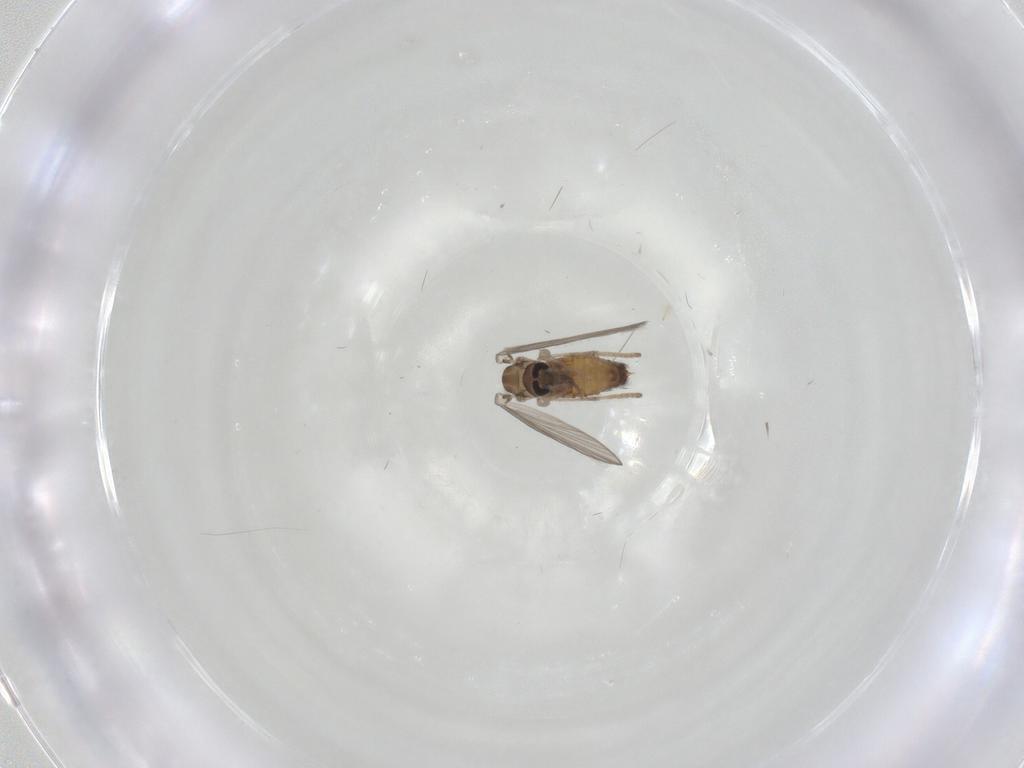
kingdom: Animalia
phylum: Arthropoda
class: Insecta
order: Diptera
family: Psychodidae
